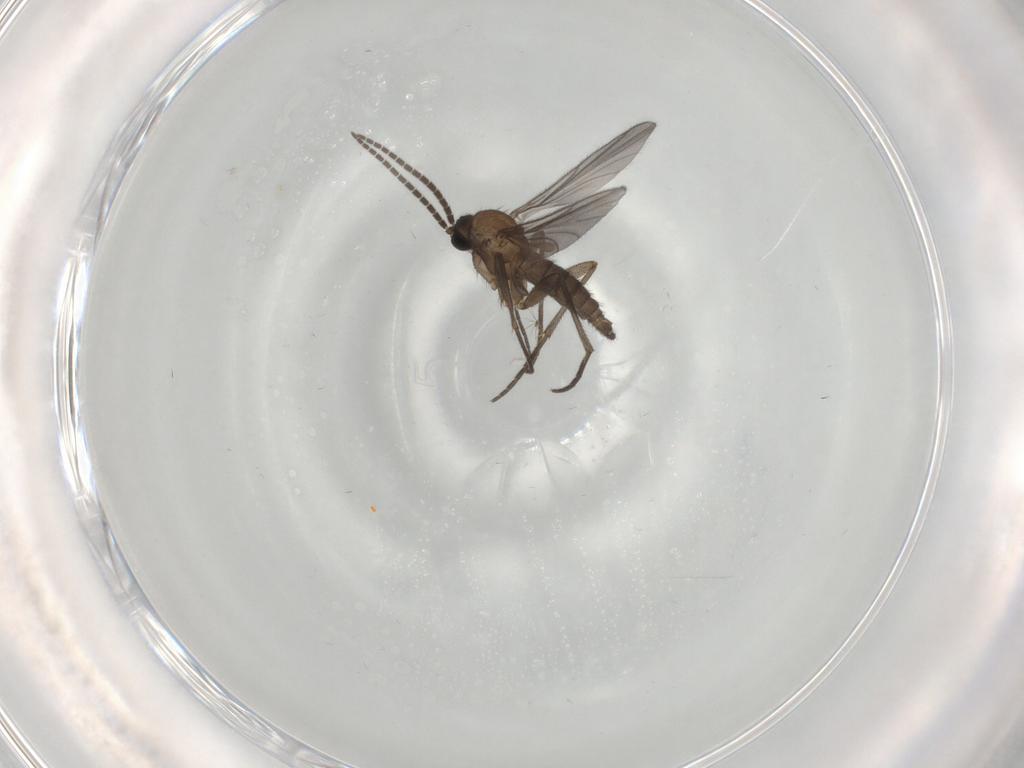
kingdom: Animalia
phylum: Arthropoda
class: Insecta
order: Diptera
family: Sciaridae
